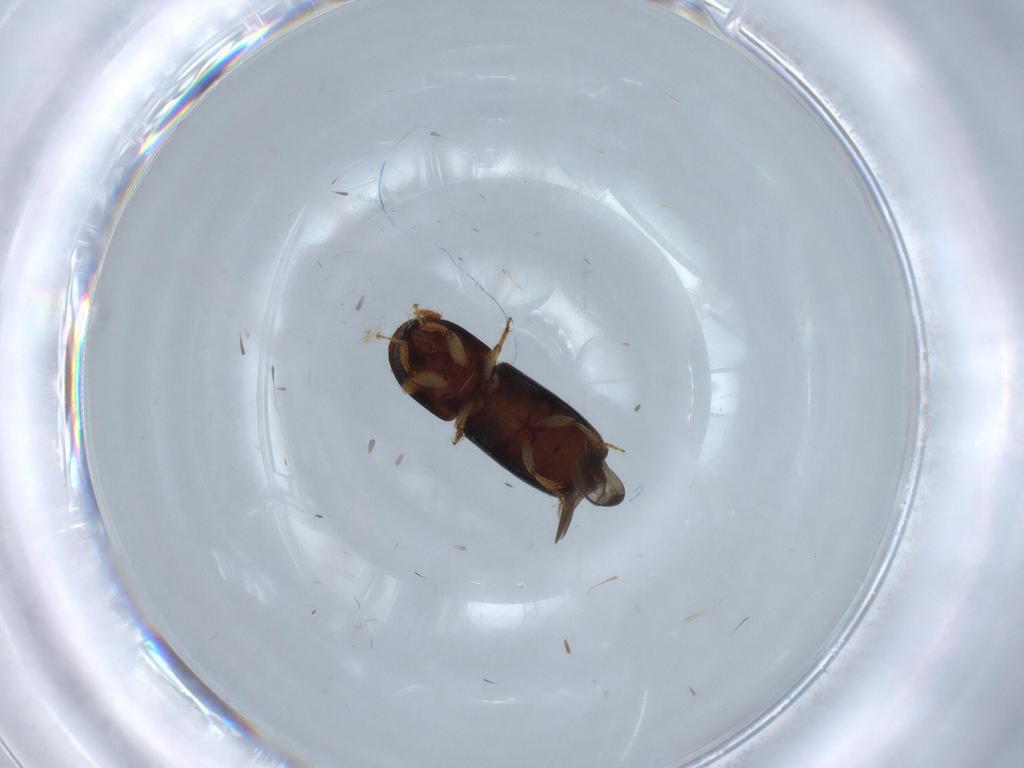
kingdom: Animalia
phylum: Arthropoda
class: Insecta
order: Coleoptera
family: Curculionidae
